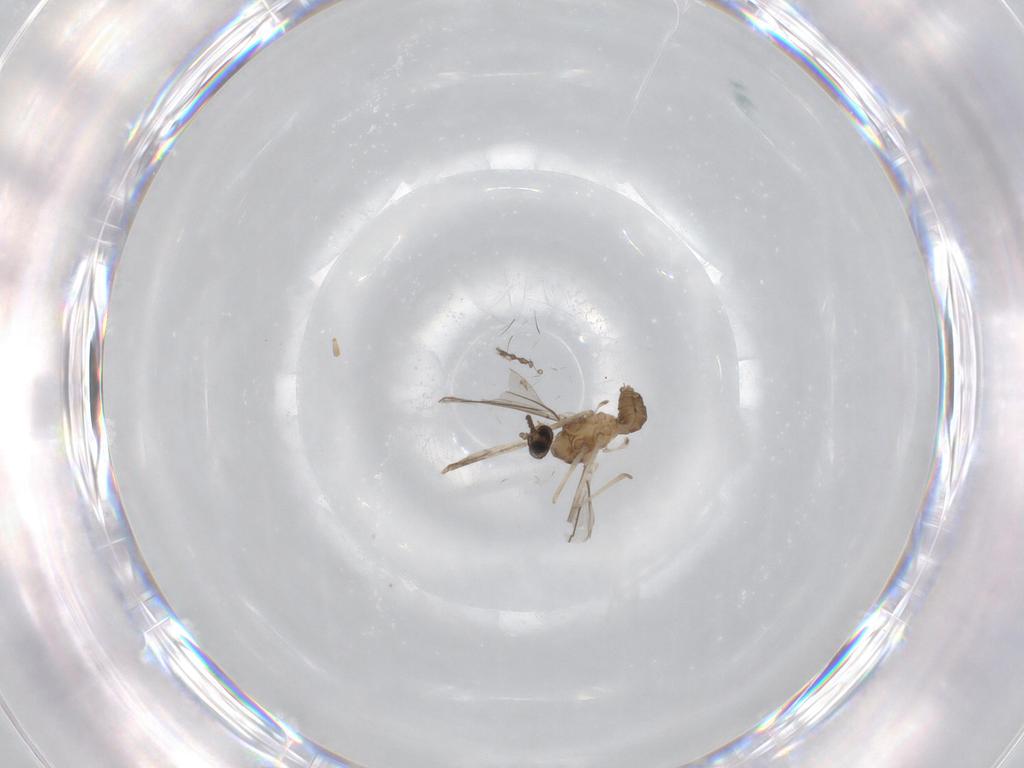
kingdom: Animalia
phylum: Arthropoda
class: Insecta
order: Diptera
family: Cecidomyiidae
